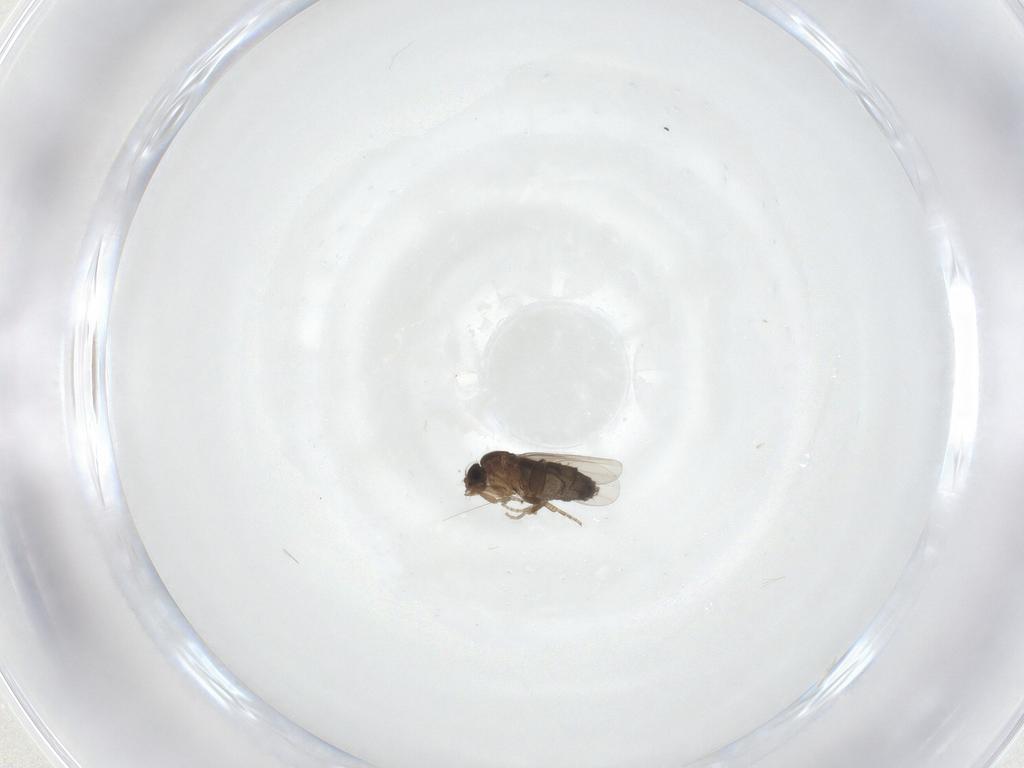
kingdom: Animalia
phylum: Arthropoda
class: Insecta
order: Diptera
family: Phoridae
